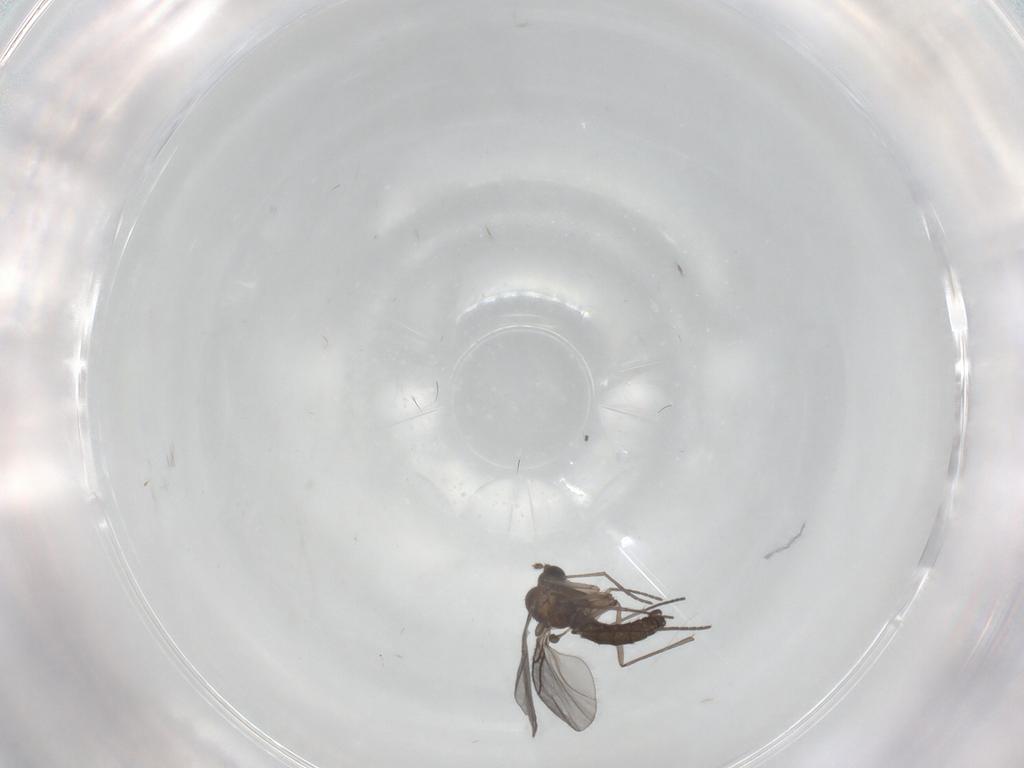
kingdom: Animalia
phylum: Arthropoda
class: Insecta
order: Diptera
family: Sciaridae
